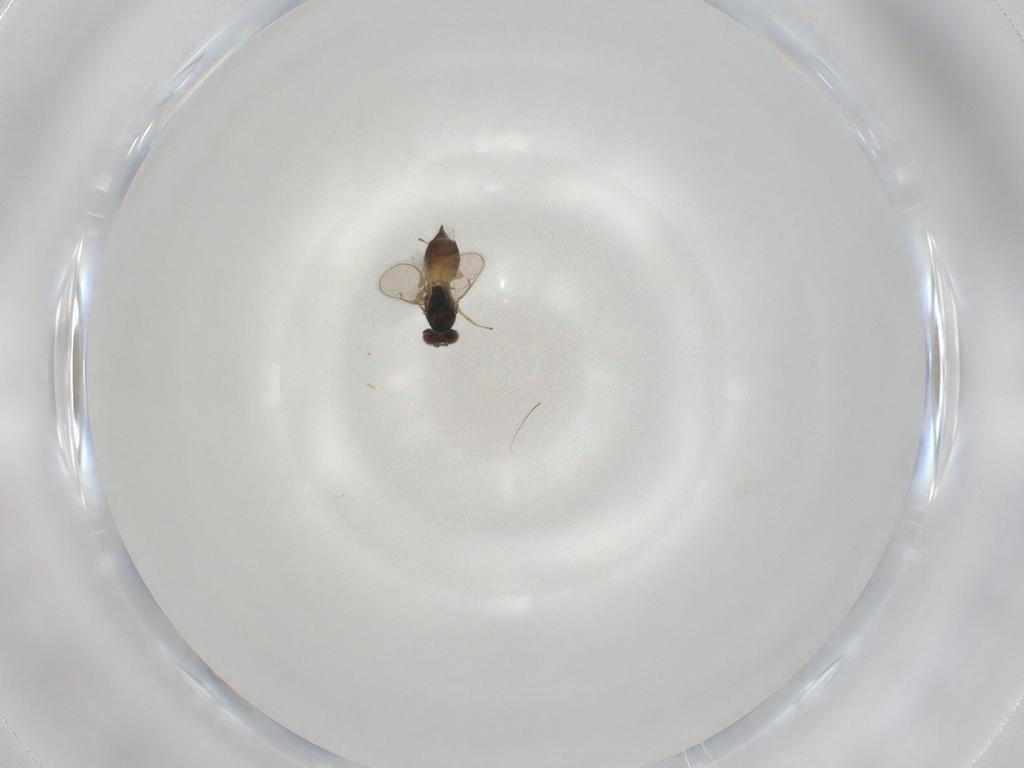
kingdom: Animalia
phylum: Arthropoda
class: Insecta
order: Hymenoptera
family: Eulophidae
